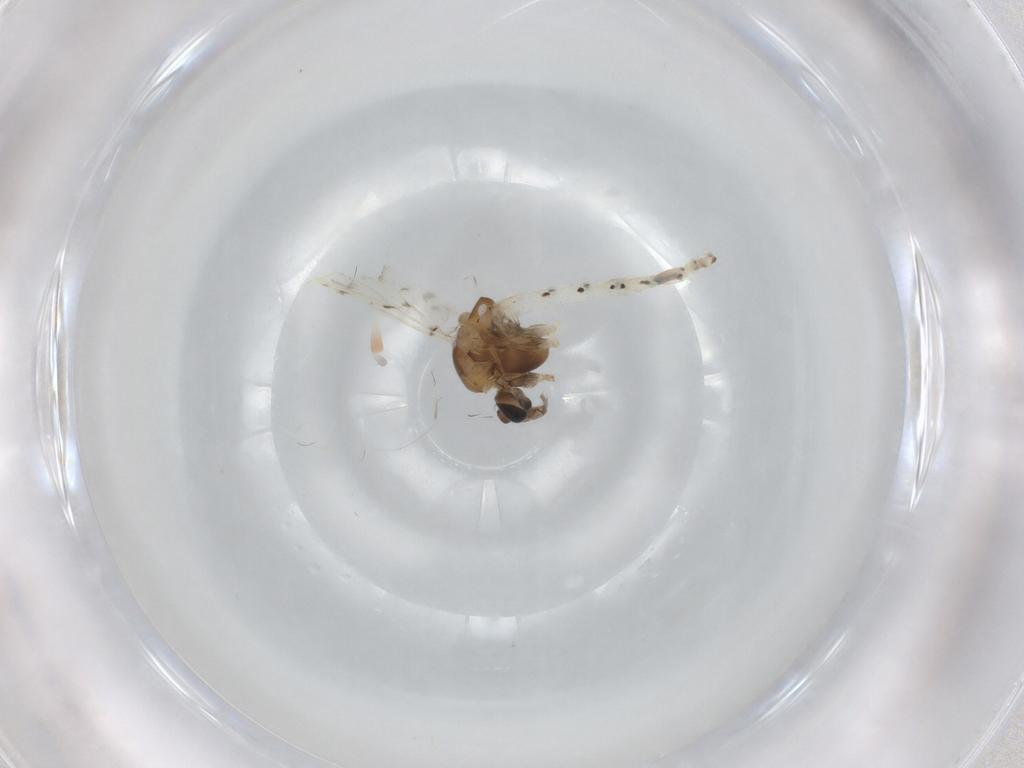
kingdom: Animalia
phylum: Arthropoda
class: Insecta
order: Diptera
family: Chironomidae
